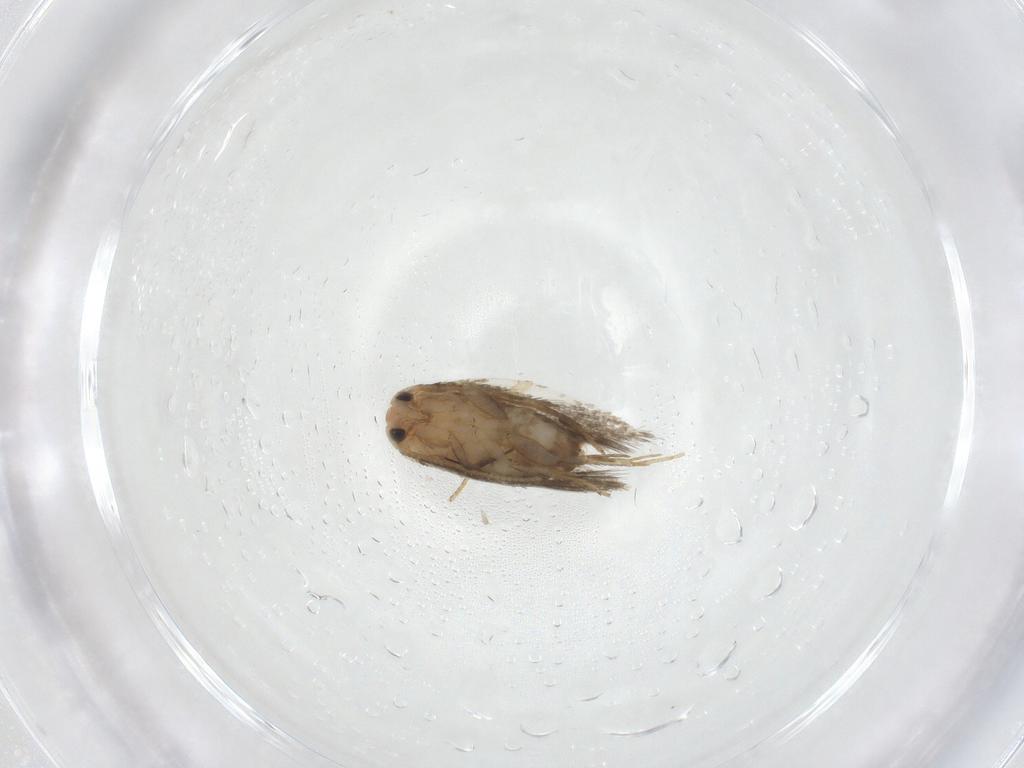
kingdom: Animalia
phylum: Arthropoda
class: Insecta
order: Lepidoptera
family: Nepticulidae
